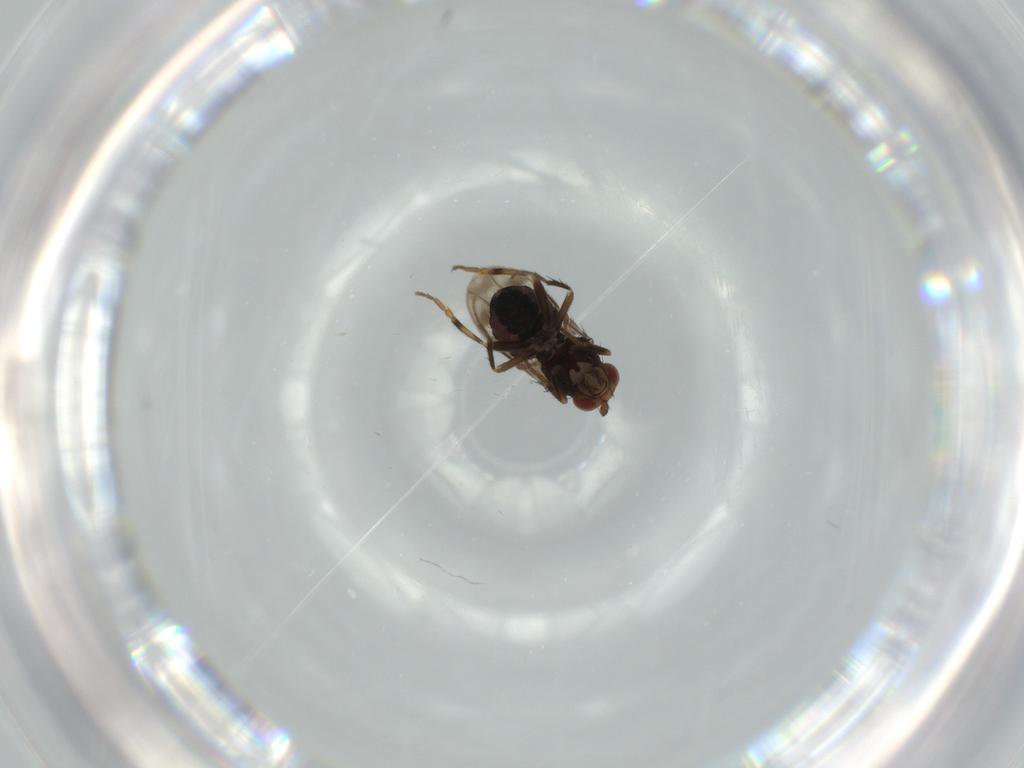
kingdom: Animalia
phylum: Arthropoda
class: Insecta
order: Diptera
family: Sphaeroceridae
